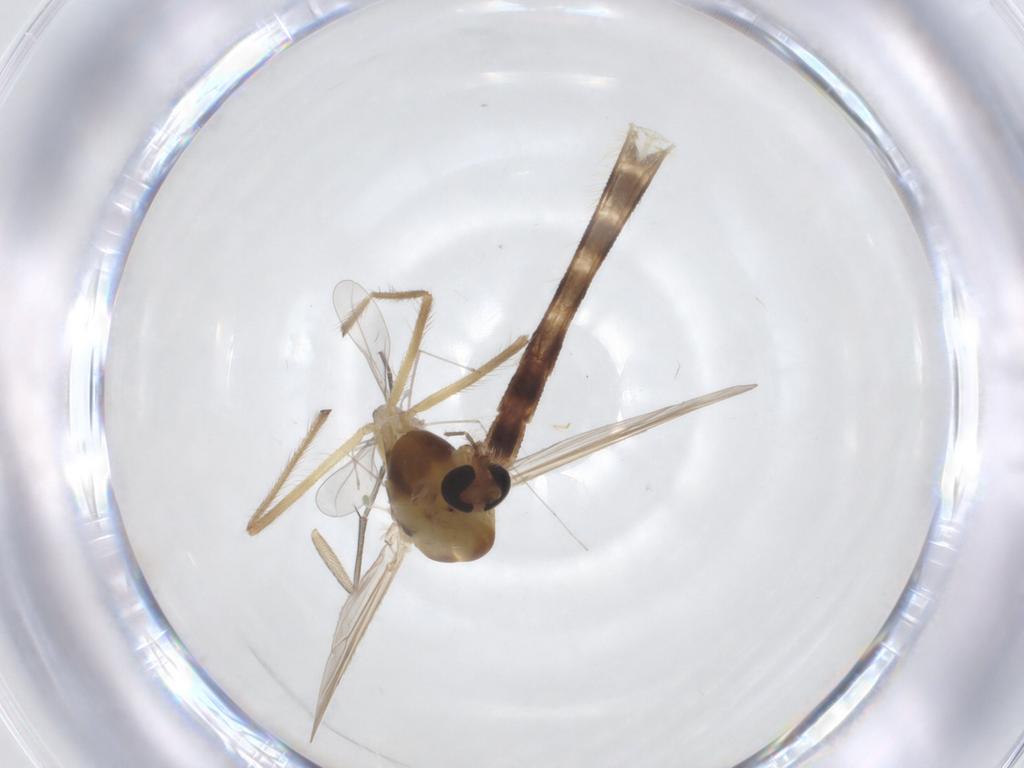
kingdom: Animalia
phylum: Arthropoda
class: Insecta
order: Diptera
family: Chironomidae
